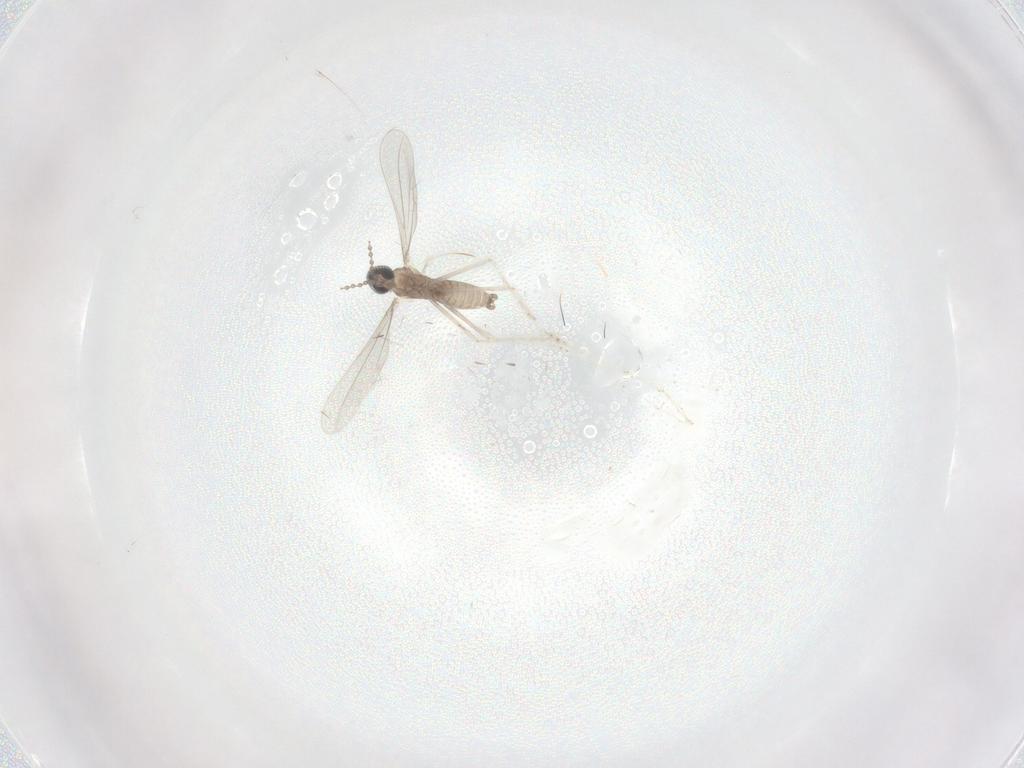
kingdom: Animalia
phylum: Arthropoda
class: Insecta
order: Diptera
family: Cecidomyiidae
